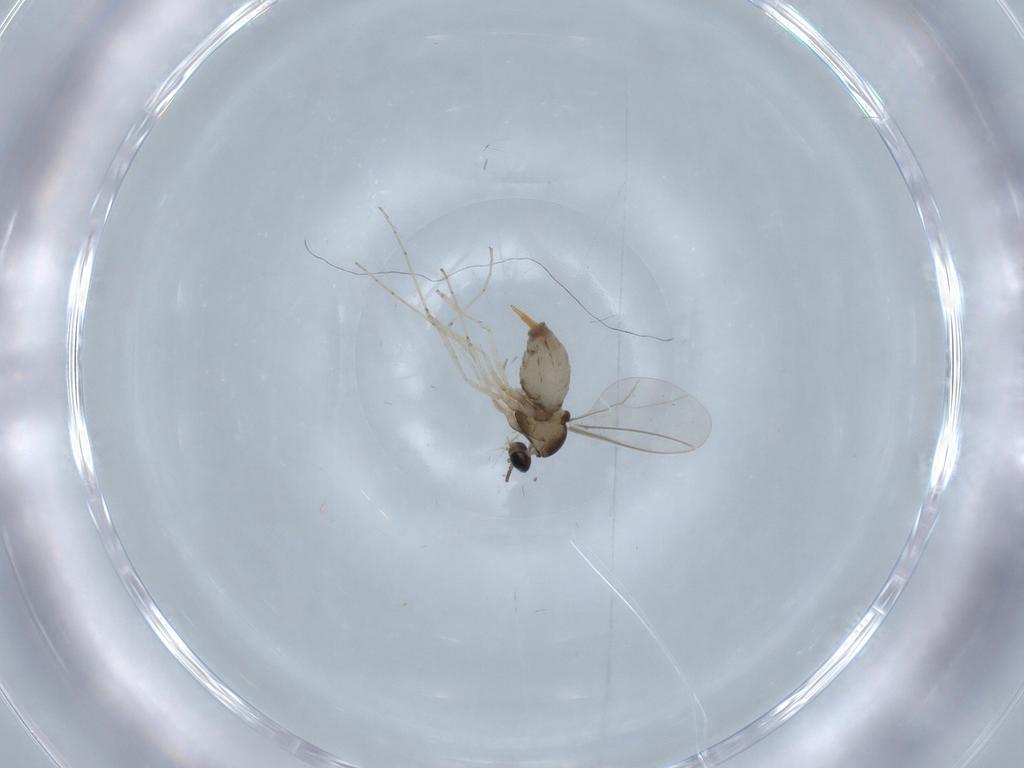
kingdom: Animalia
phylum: Arthropoda
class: Insecta
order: Diptera
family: Cecidomyiidae
